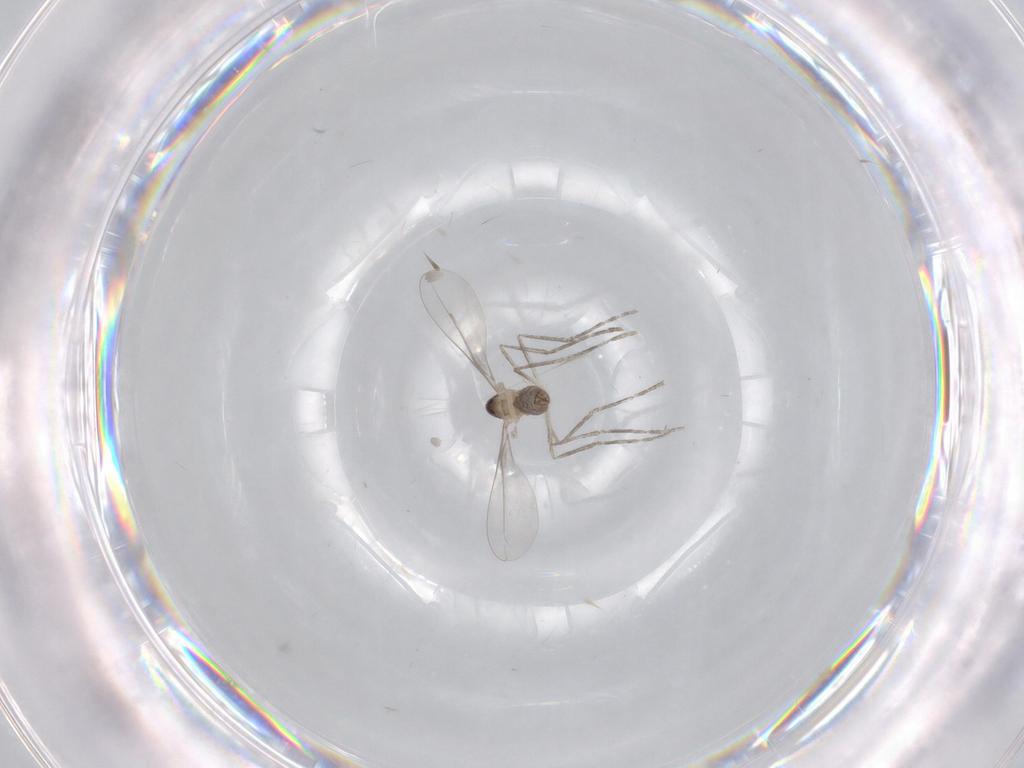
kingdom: Animalia
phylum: Arthropoda
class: Insecta
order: Diptera
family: Cecidomyiidae
